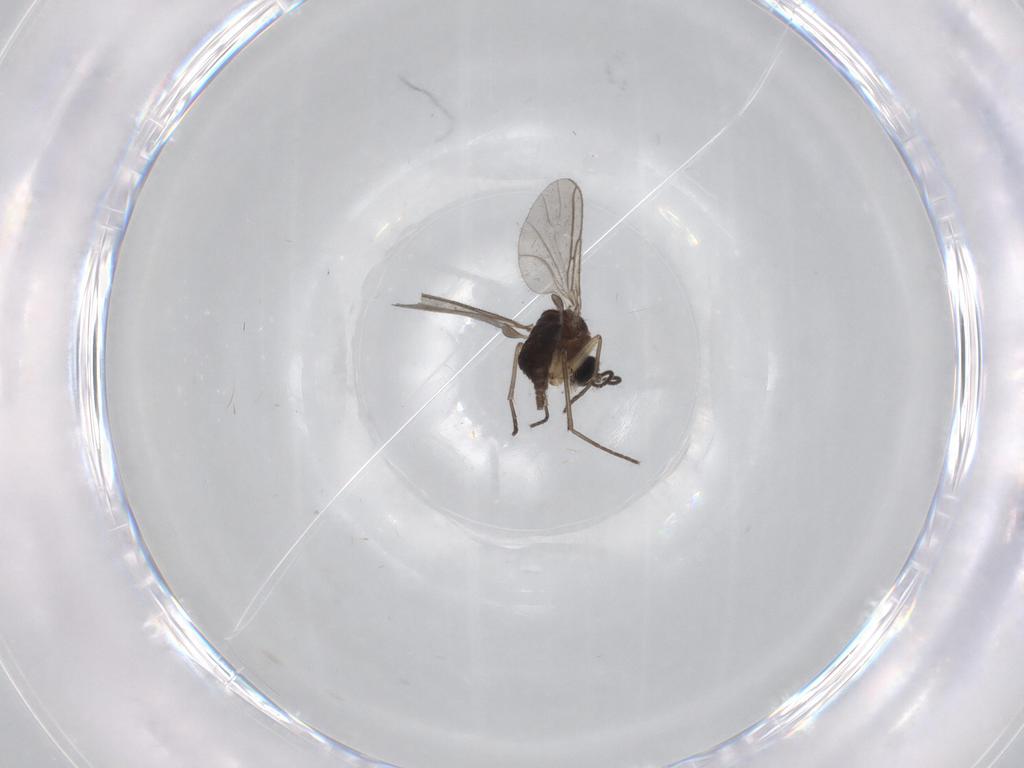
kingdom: Animalia
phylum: Arthropoda
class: Insecta
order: Diptera
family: Sciaridae
